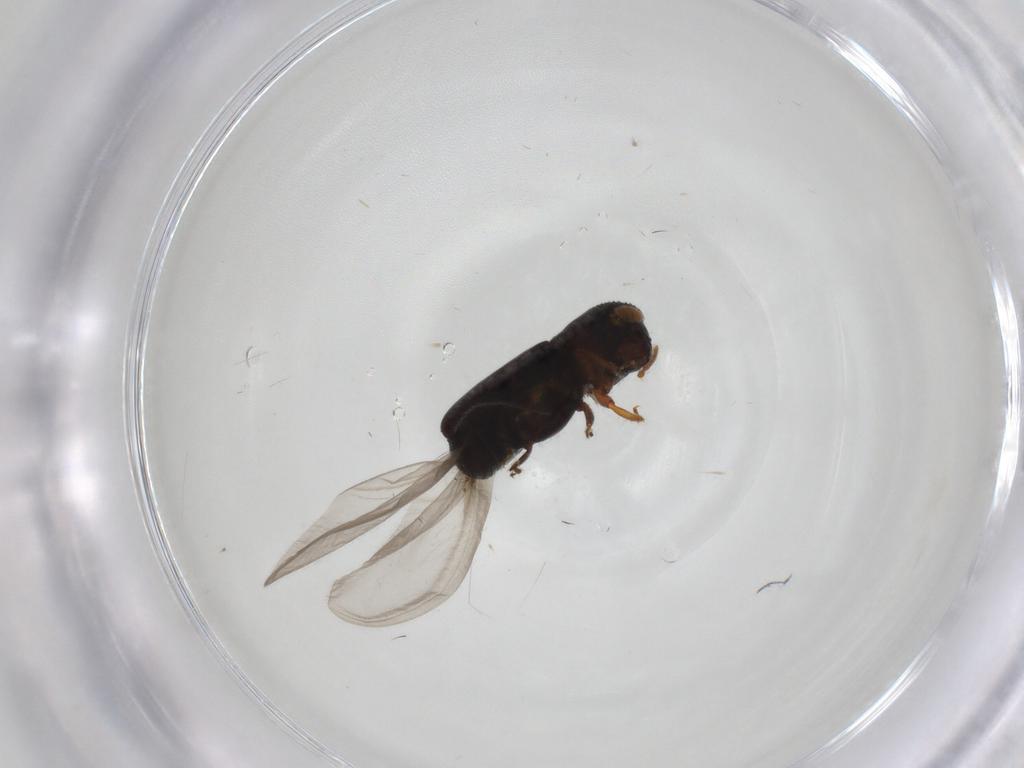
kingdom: Animalia
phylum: Arthropoda
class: Insecta
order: Coleoptera
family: Curculionidae
